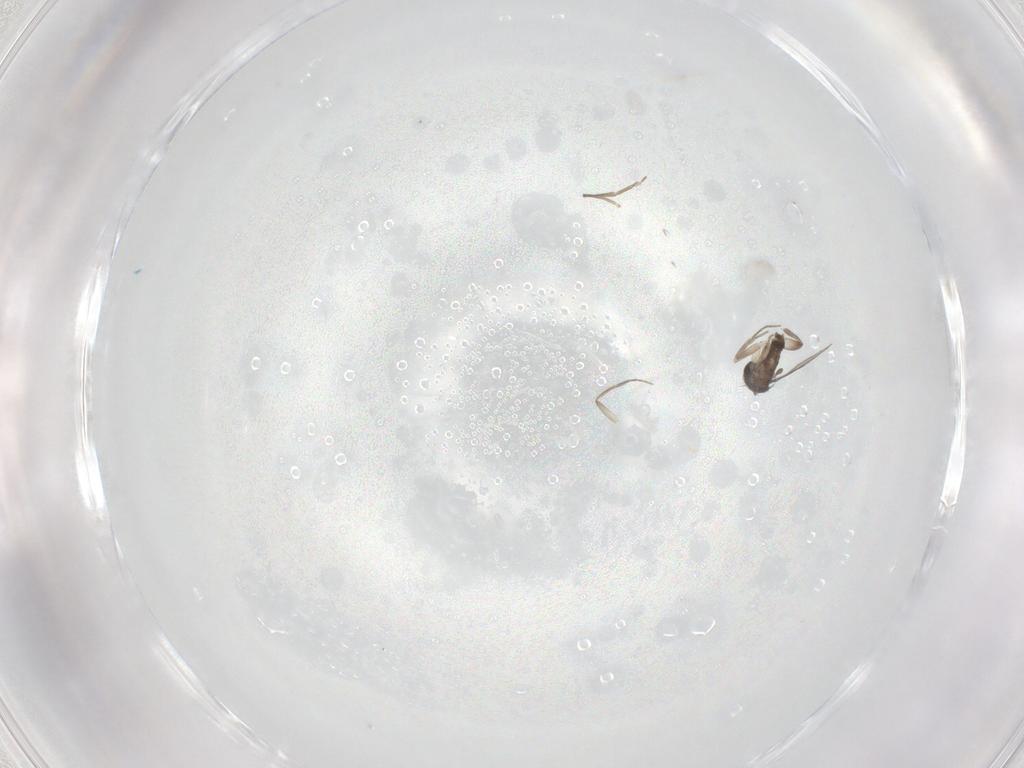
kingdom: Animalia
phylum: Arthropoda
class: Insecta
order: Diptera
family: Phoridae
